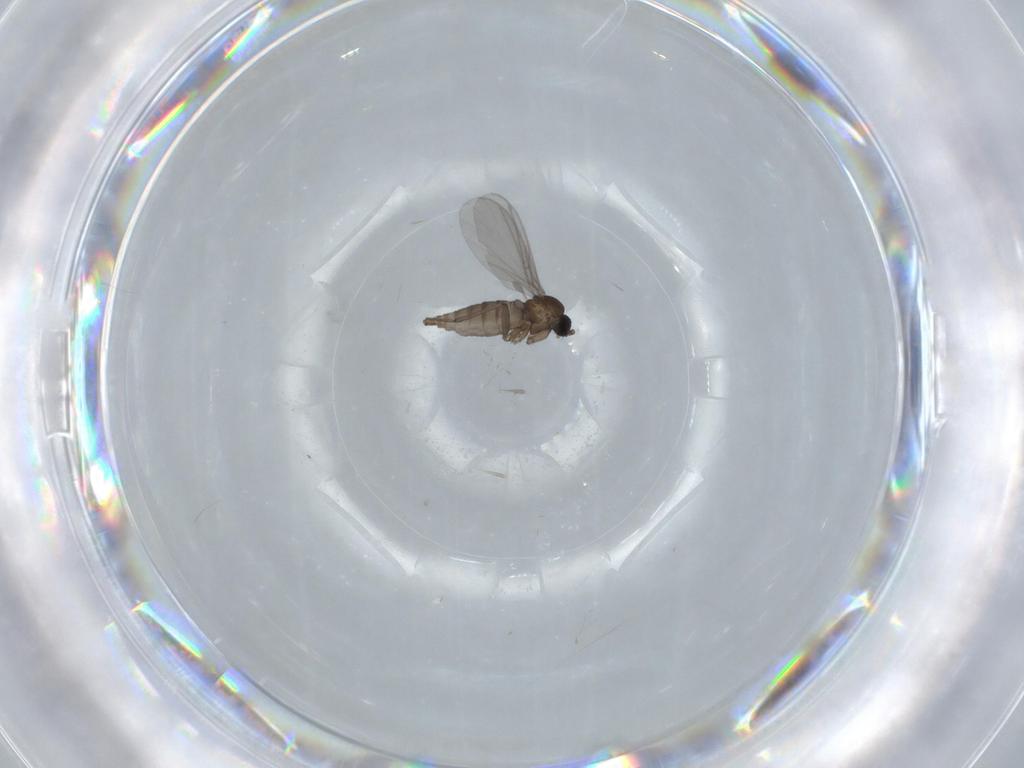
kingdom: Animalia
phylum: Arthropoda
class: Insecta
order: Diptera
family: Sciaridae
